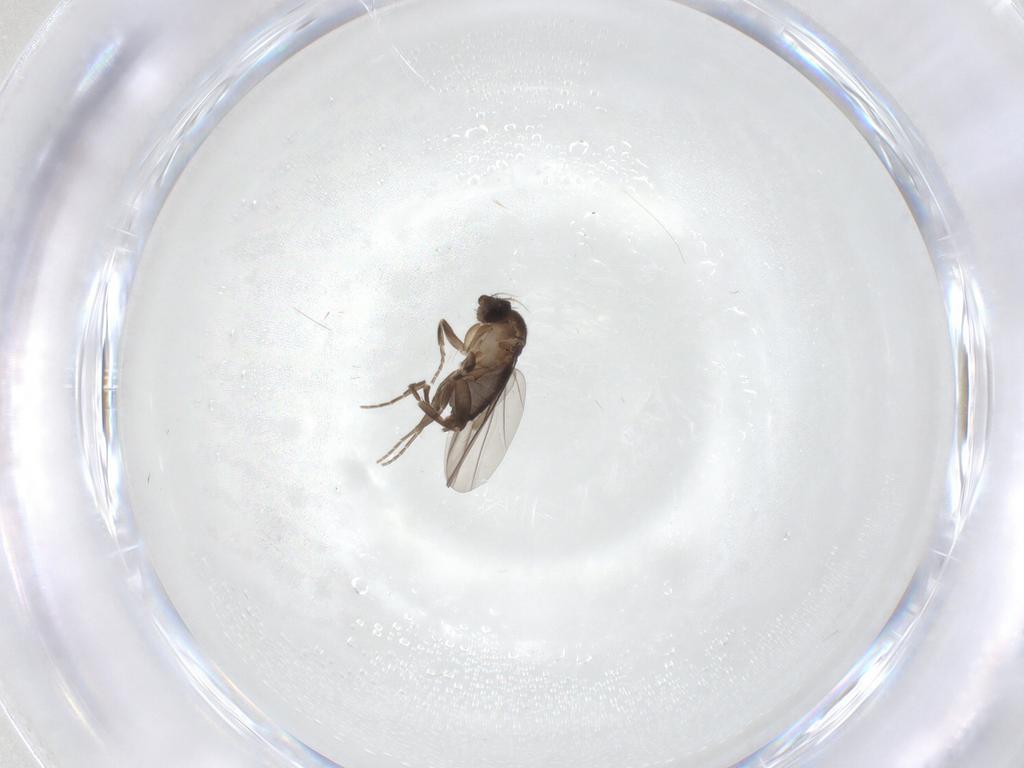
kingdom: Animalia
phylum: Arthropoda
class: Insecta
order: Diptera
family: Phoridae
